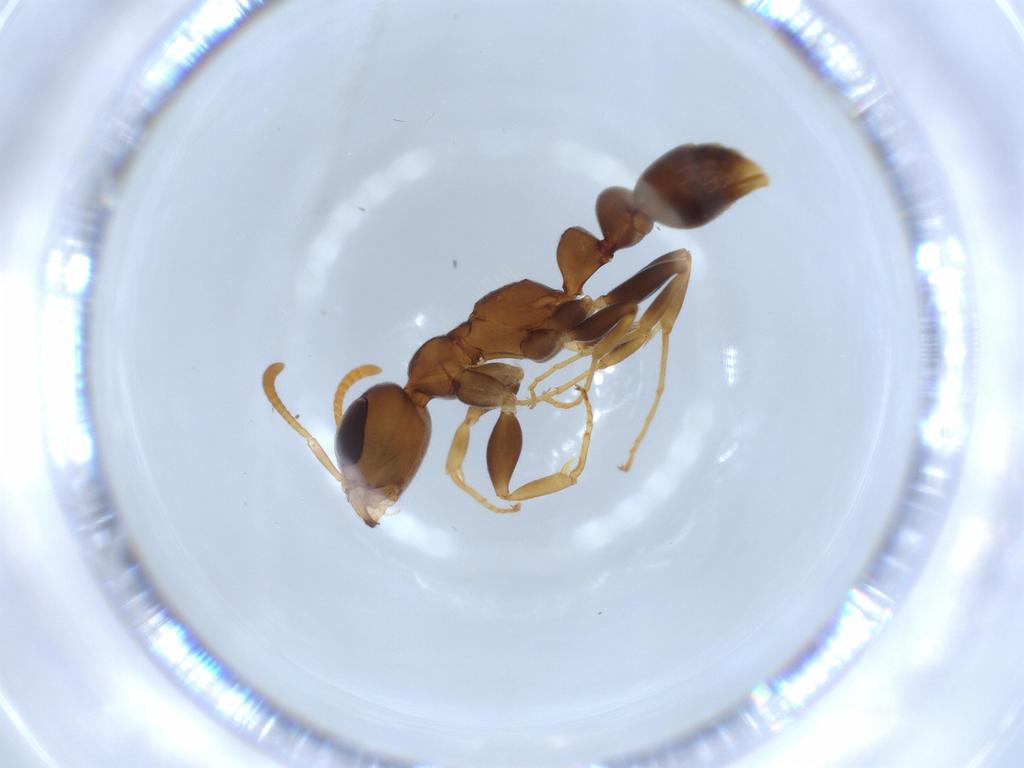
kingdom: Animalia
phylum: Arthropoda
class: Insecta
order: Hymenoptera
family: Formicidae
